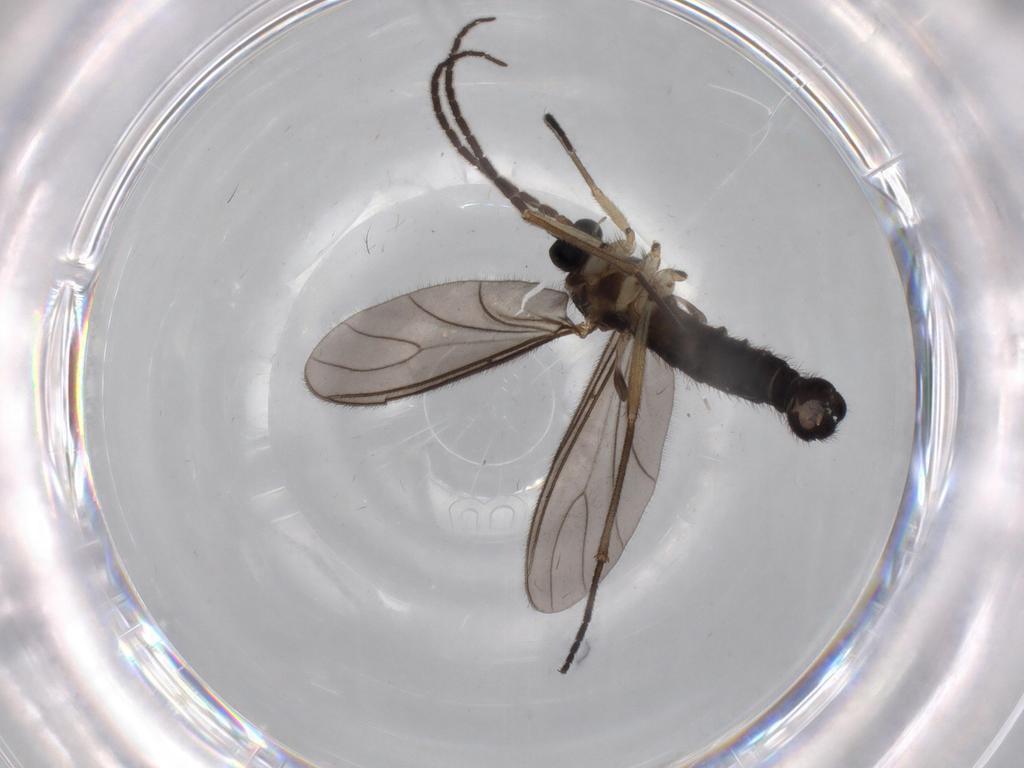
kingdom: Animalia
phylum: Arthropoda
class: Insecta
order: Diptera
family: Sciaridae
